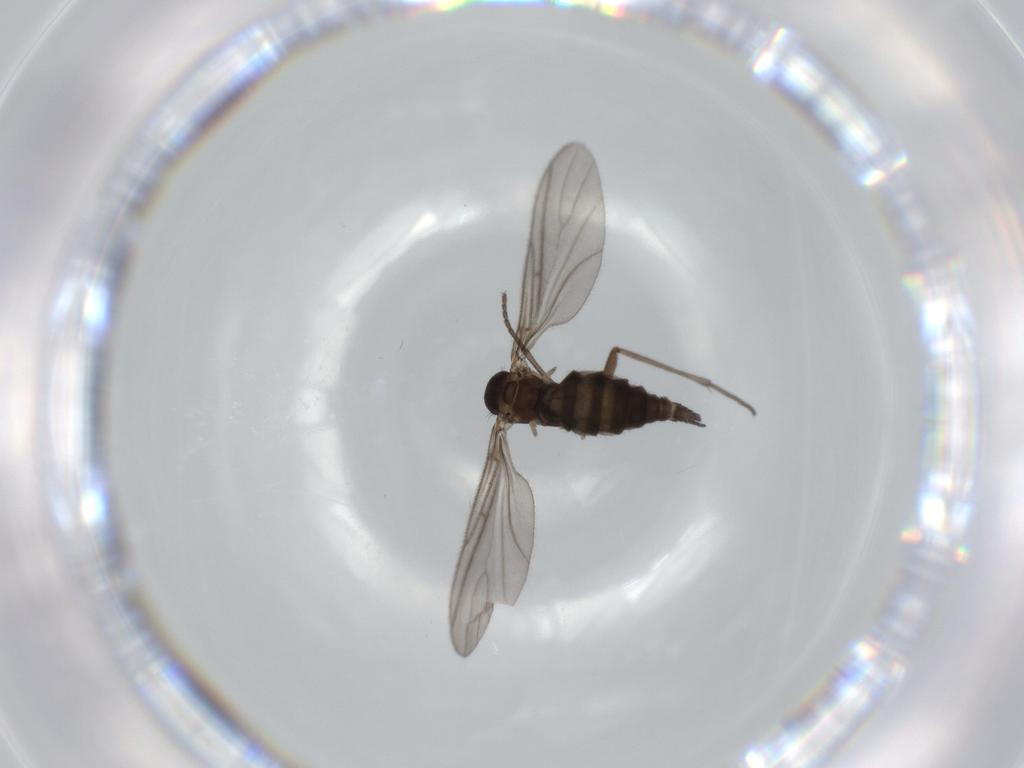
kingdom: Animalia
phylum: Arthropoda
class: Insecta
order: Diptera
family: Sciaridae
